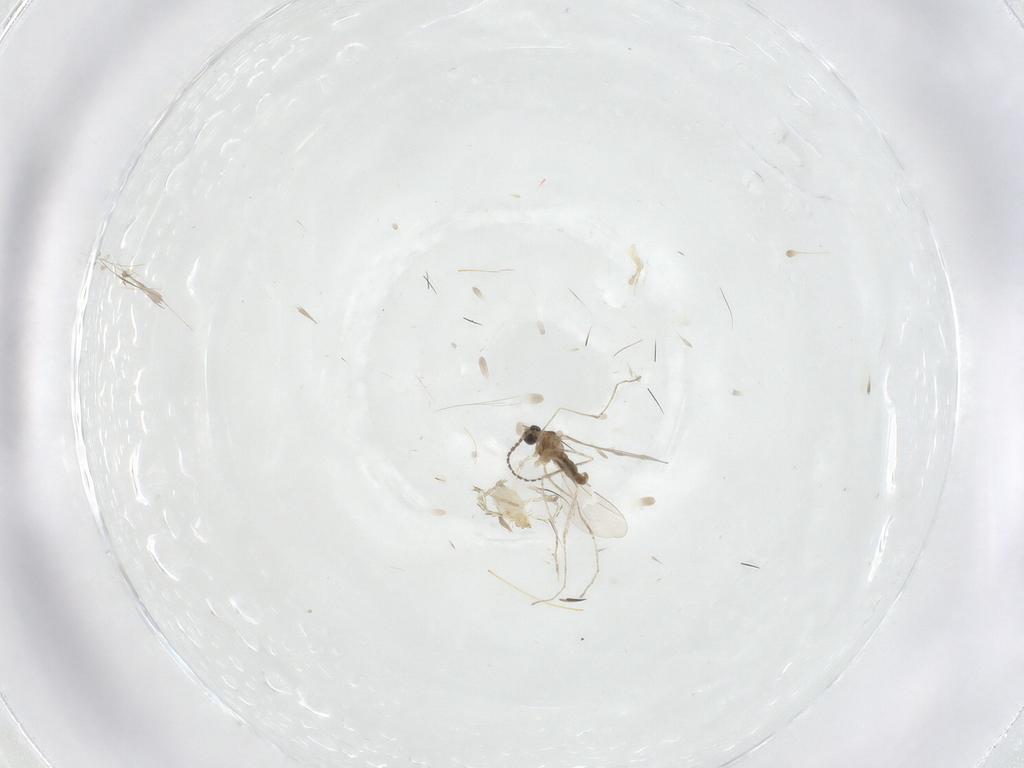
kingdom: Animalia
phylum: Arthropoda
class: Insecta
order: Diptera
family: Cecidomyiidae
